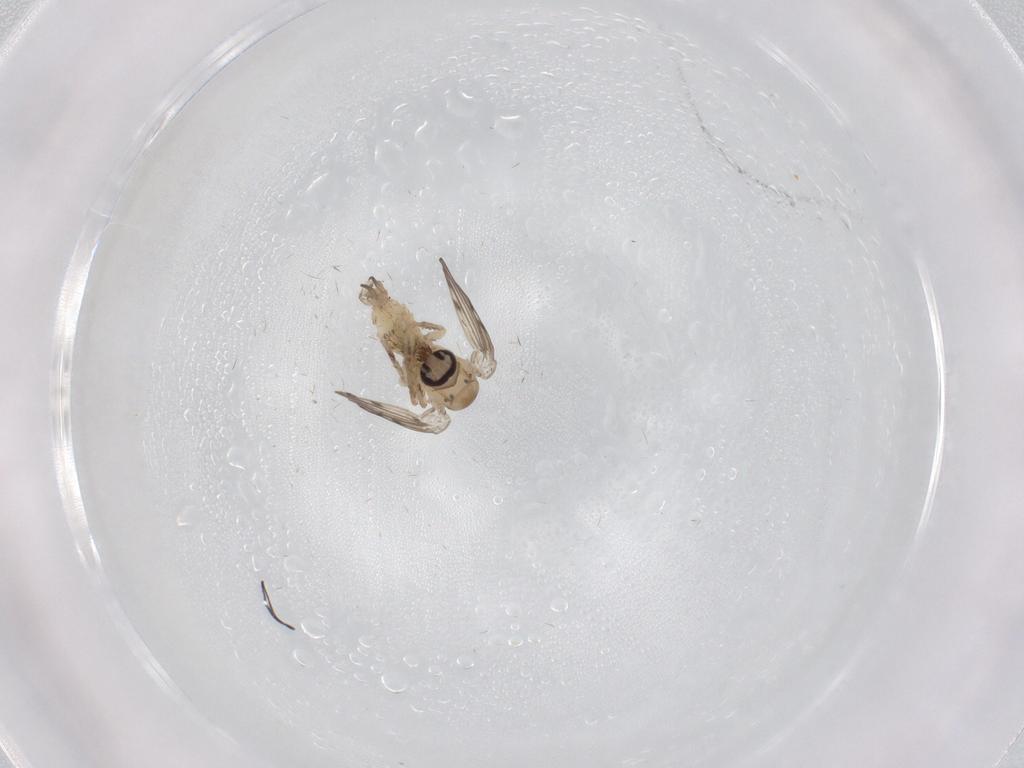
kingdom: Animalia
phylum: Arthropoda
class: Insecta
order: Diptera
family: Psychodidae
